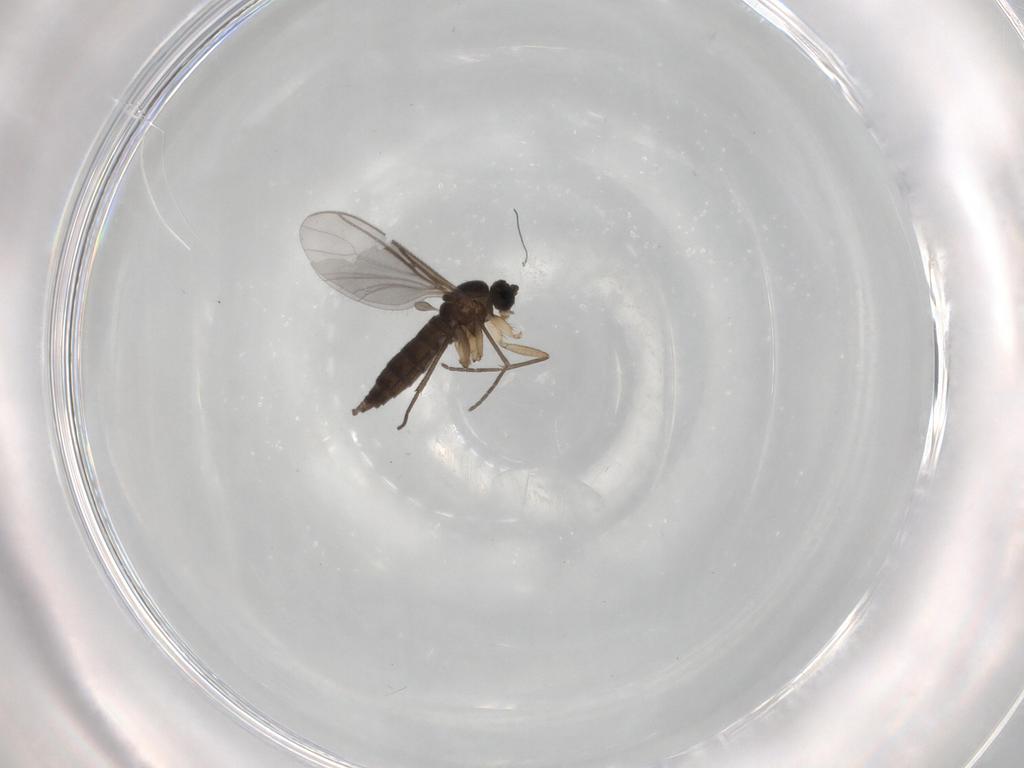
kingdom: Animalia
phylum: Arthropoda
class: Insecta
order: Diptera
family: Sciaridae
